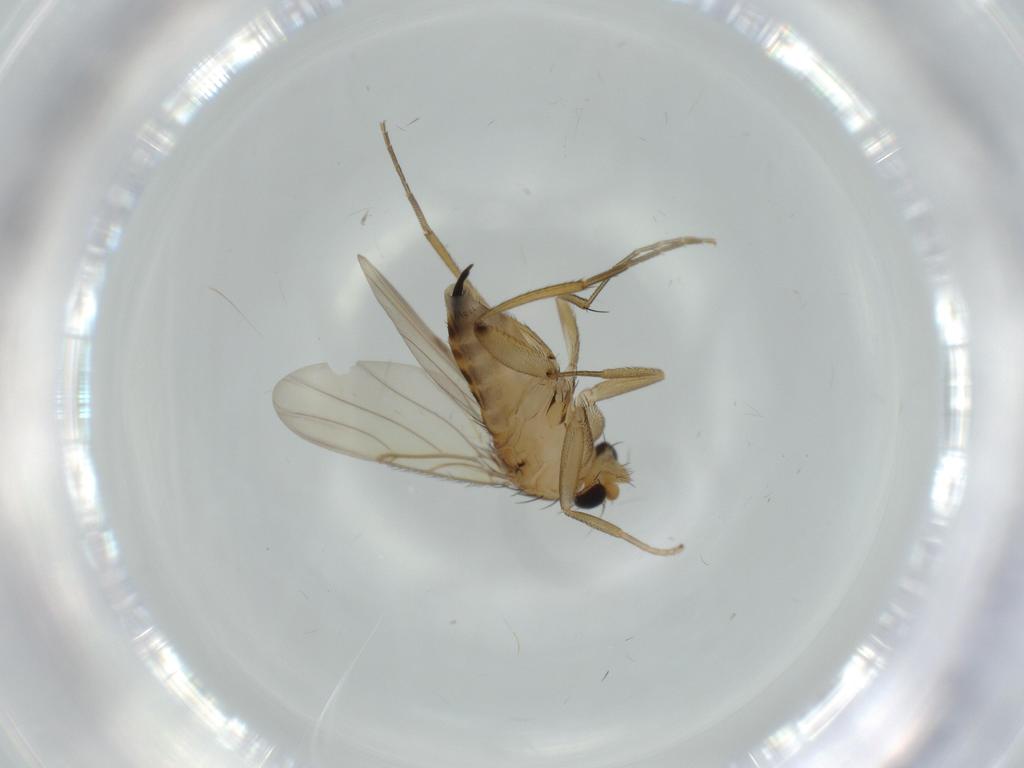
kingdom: Animalia
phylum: Arthropoda
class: Insecta
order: Diptera
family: Phoridae
